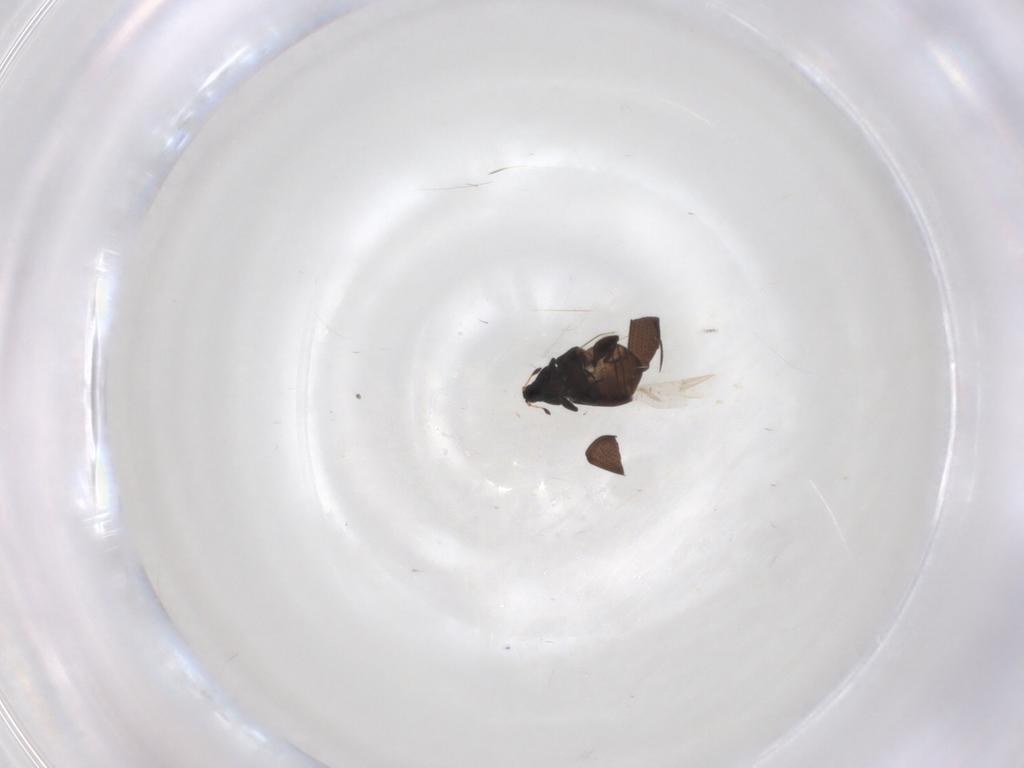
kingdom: Animalia
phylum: Arthropoda
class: Insecta
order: Coleoptera
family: Curculionidae
